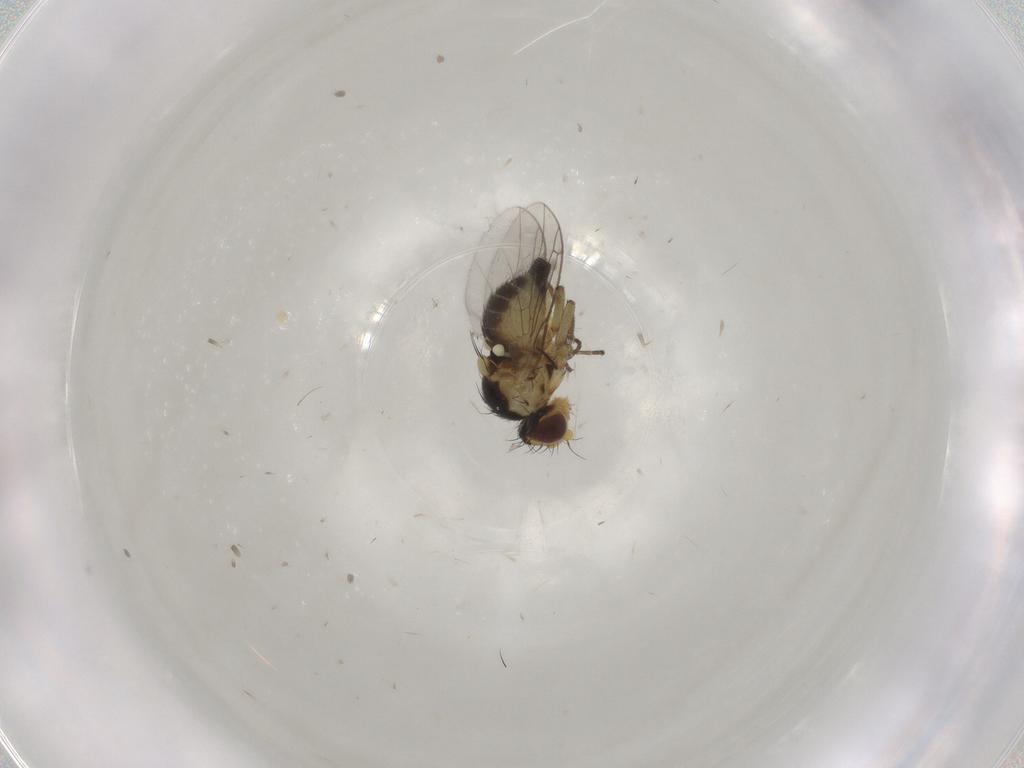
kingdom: Animalia
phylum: Arthropoda
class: Insecta
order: Diptera
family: Agromyzidae
